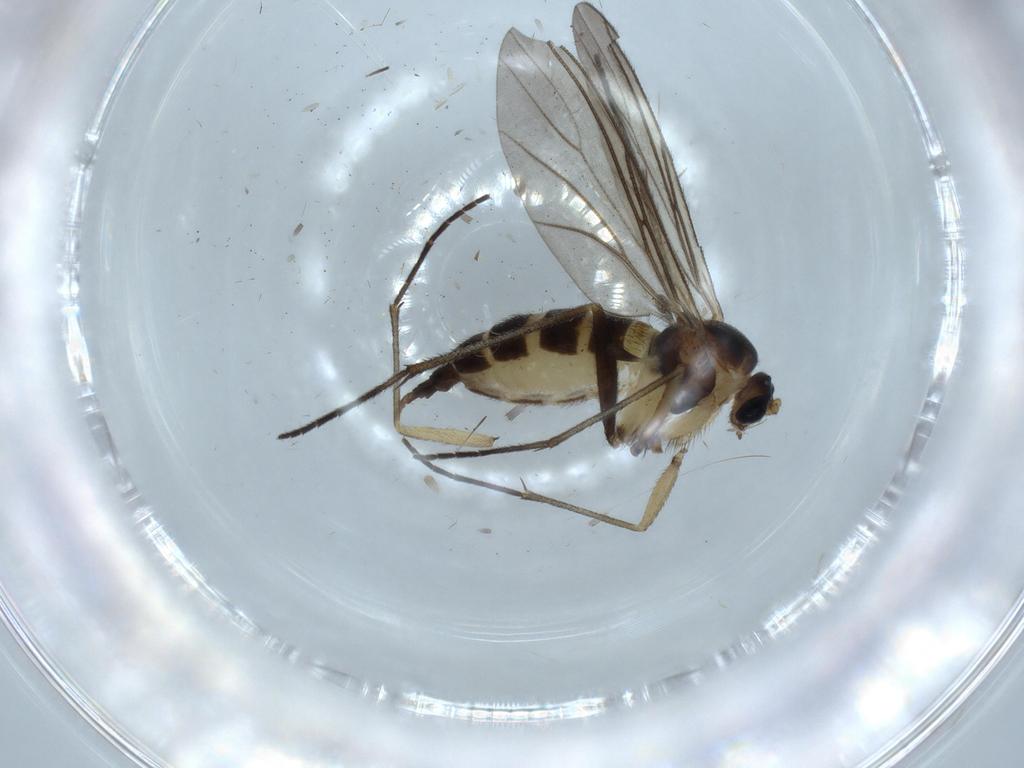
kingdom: Animalia
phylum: Arthropoda
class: Insecta
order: Diptera
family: Sciaridae
